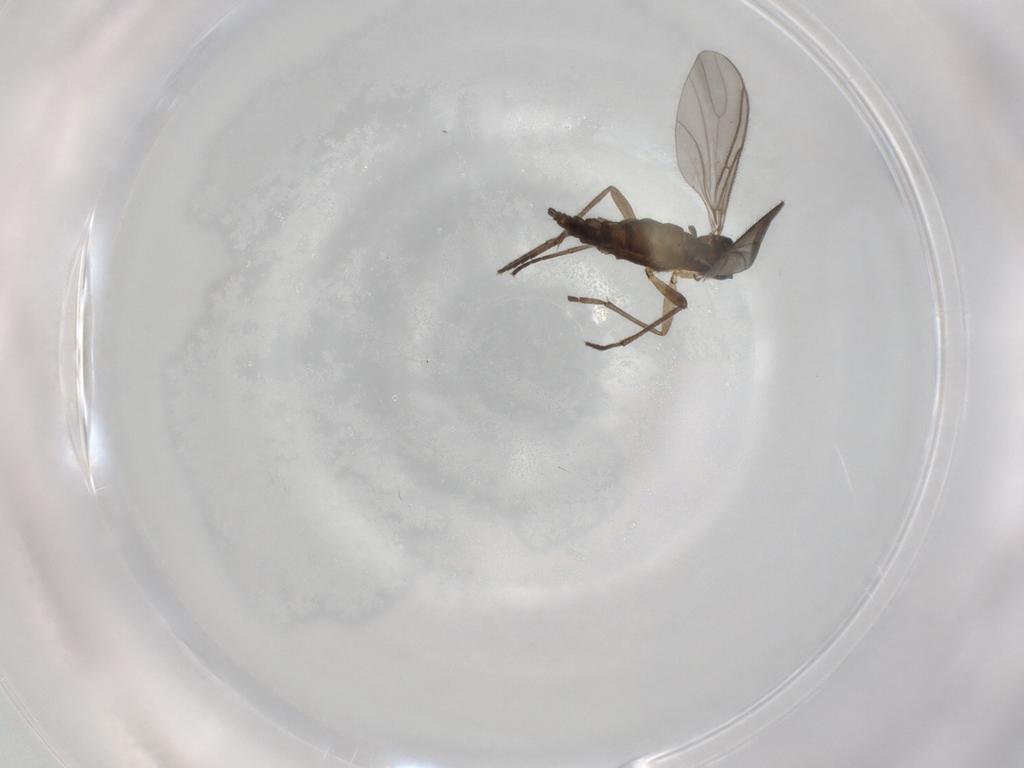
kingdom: Animalia
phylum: Arthropoda
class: Insecta
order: Diptera
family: Sciaridae
